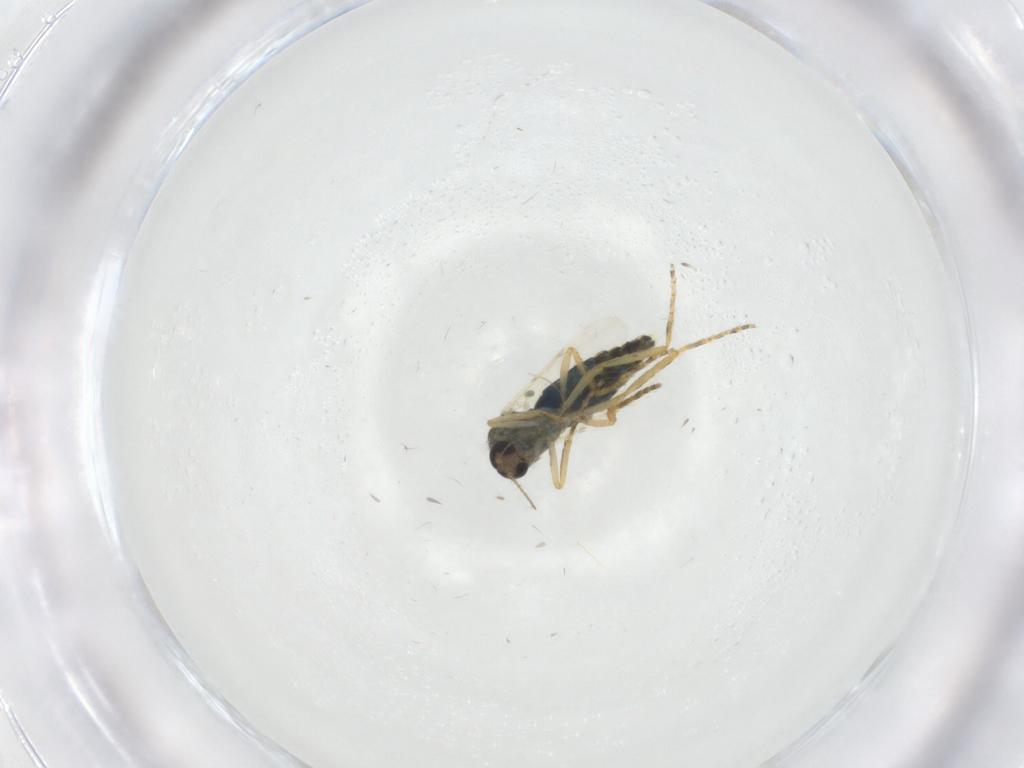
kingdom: Animalia
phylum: Arthropoda
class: Insecta
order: Diptera
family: Ceratopogonidae
